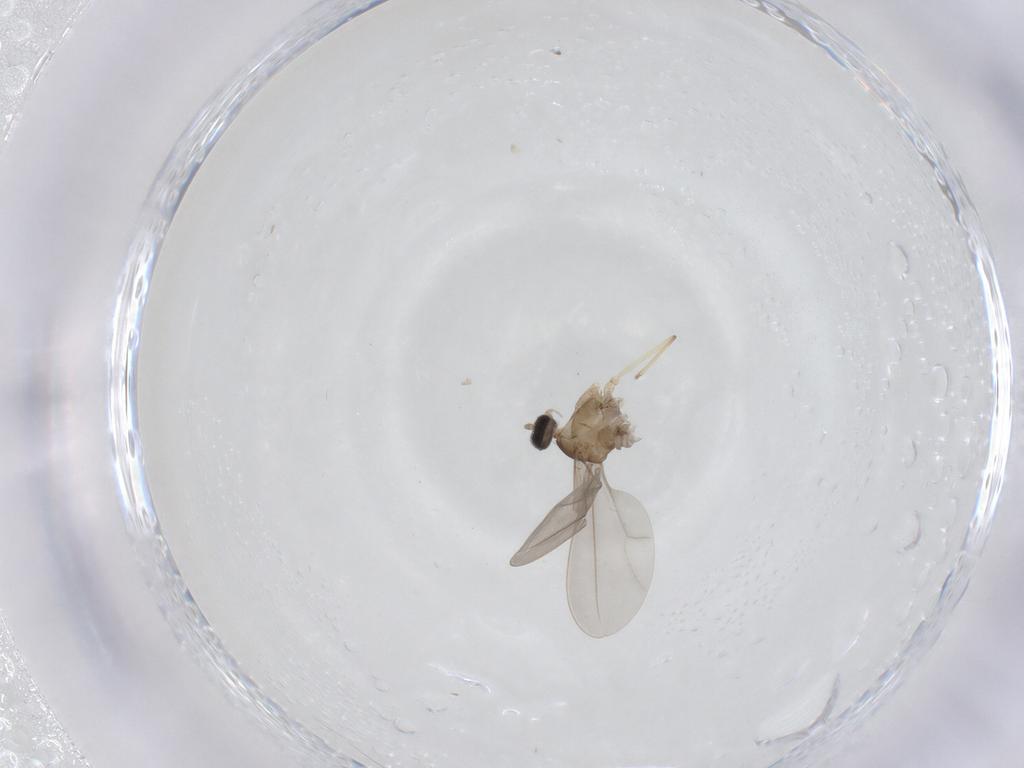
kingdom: Animalia
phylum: Arthropoda
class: Insecta
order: Diptera
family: Cecidomyiidae
